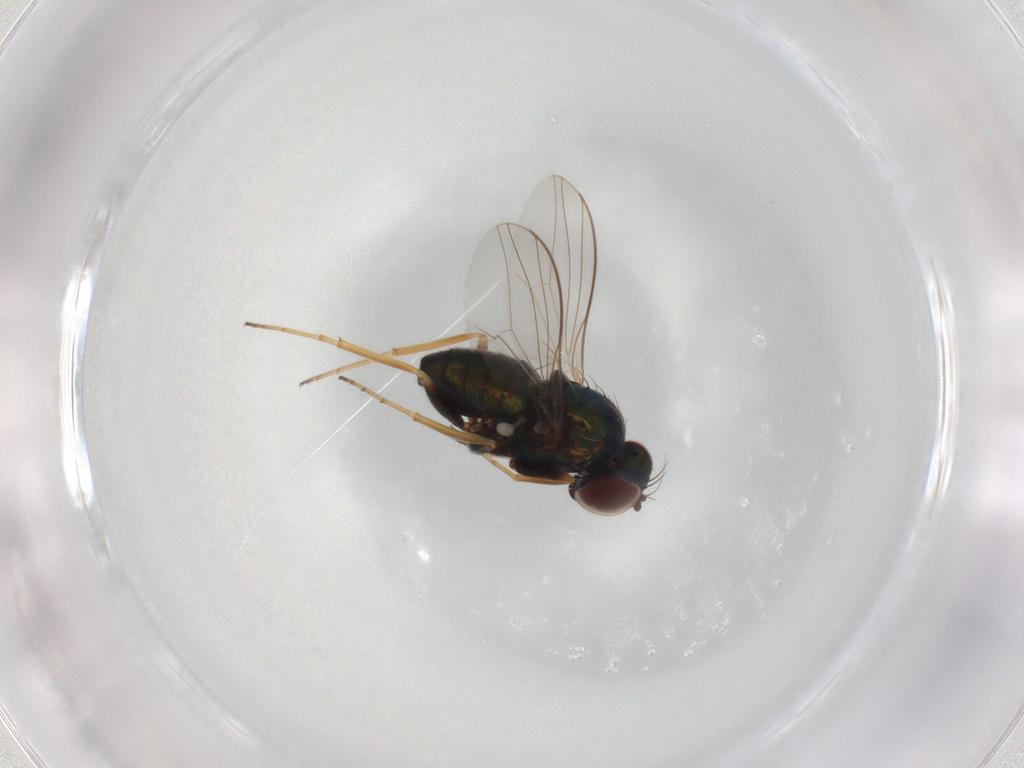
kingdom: Animalia
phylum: Arthropoda
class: Insecta
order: Diptera
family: Dolichopodidae
